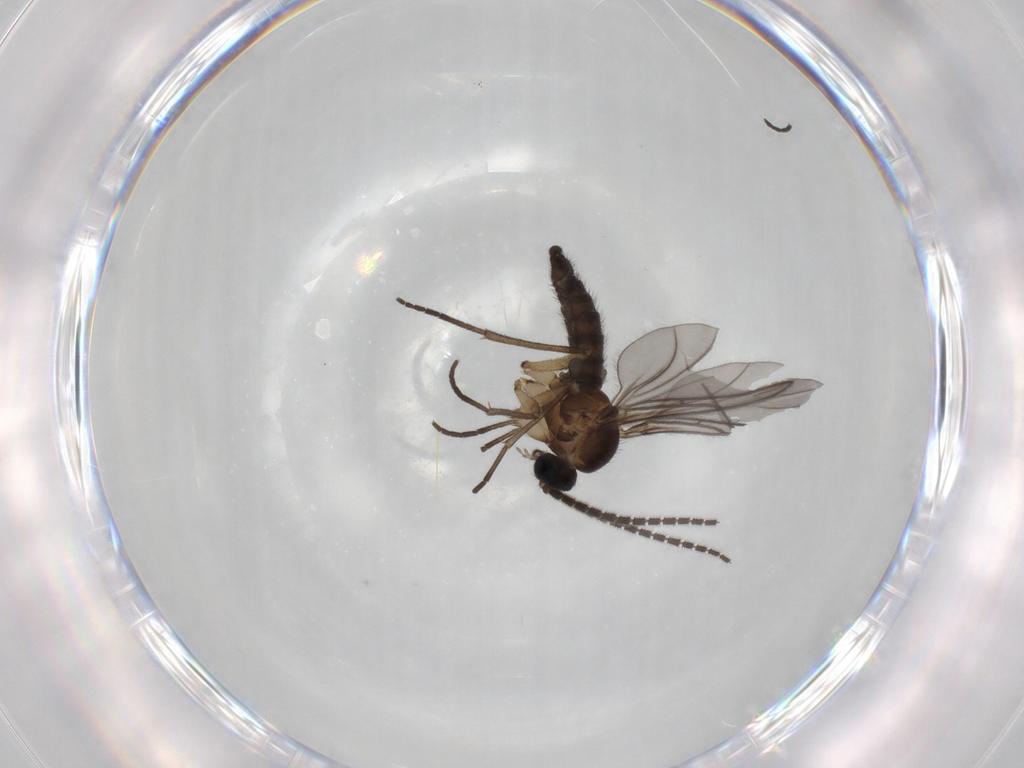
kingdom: Animalia
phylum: Arthropoda
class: Insecta
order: Diptera
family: Sciaridae
